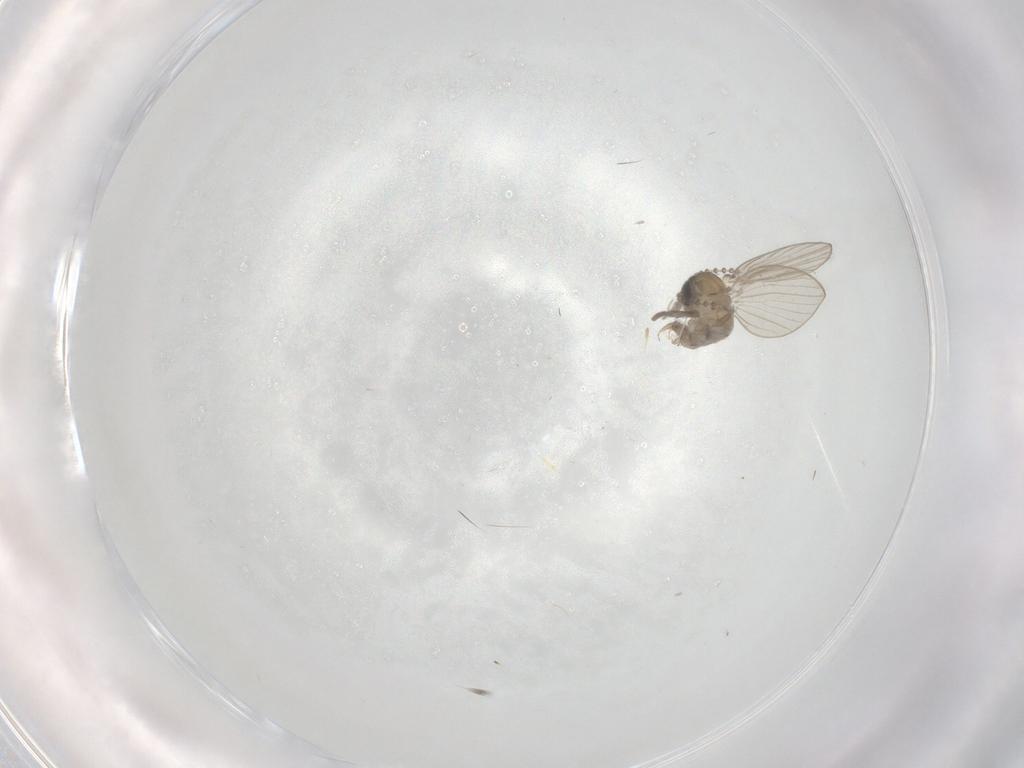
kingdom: Animalia
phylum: Arthropoda
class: Insecta
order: Diptera
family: Psychodidae
